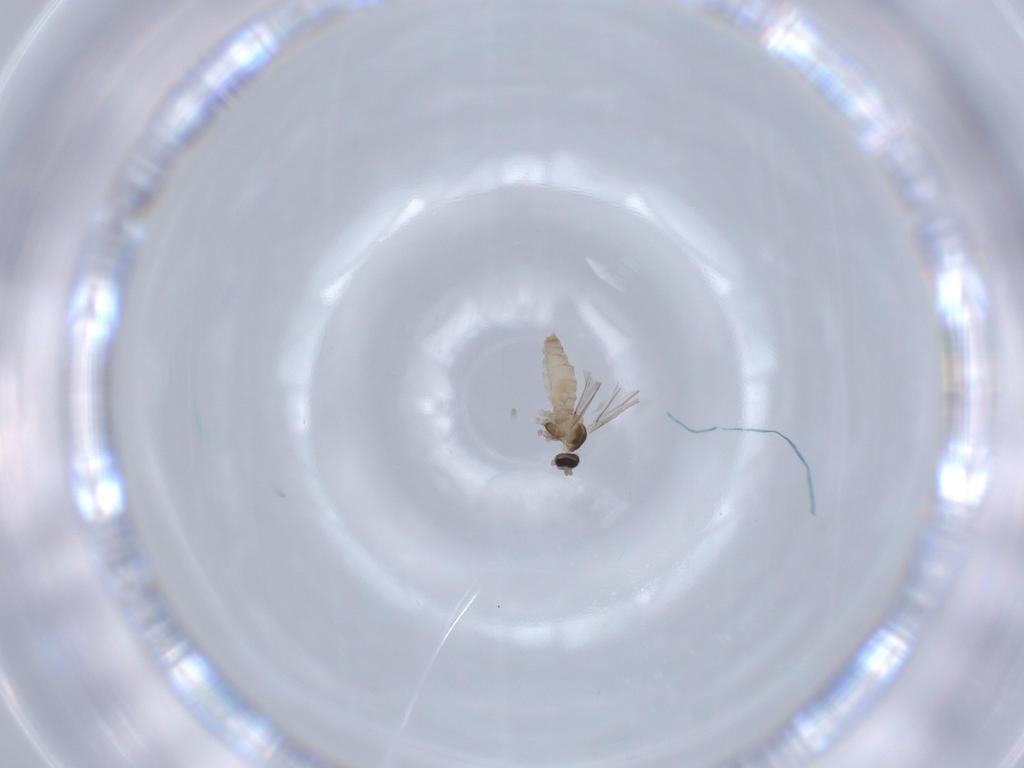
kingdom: Animalia
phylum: Arthropoda
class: Insecta
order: Diptera
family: Cecidomyiidae
